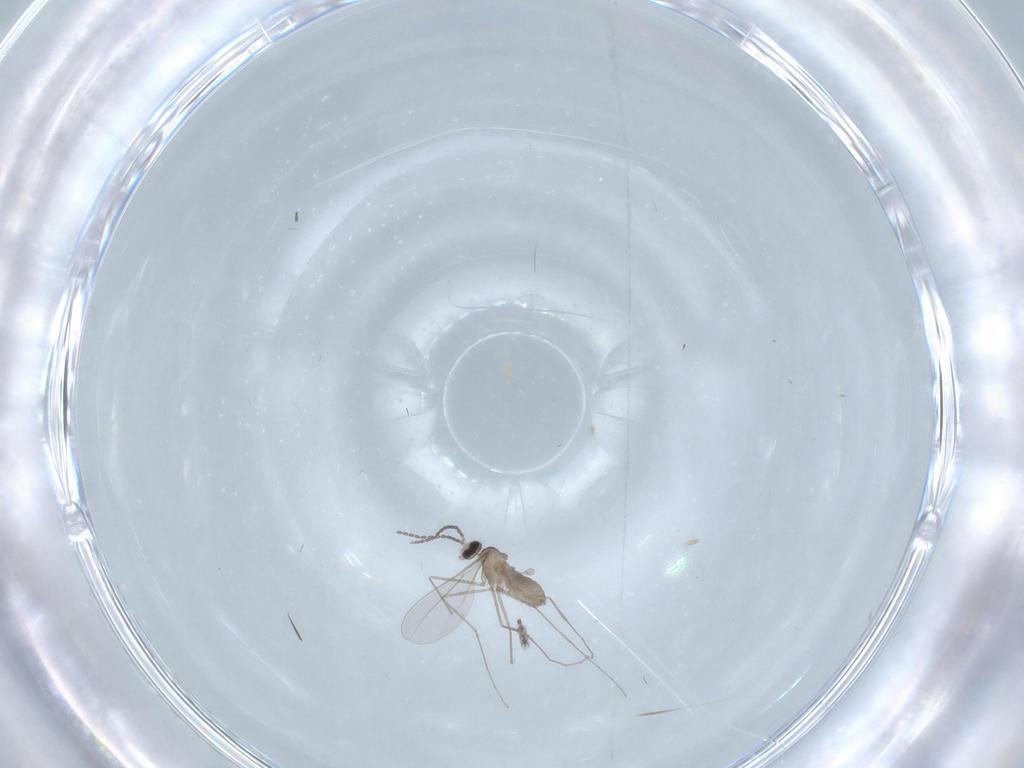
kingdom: Animalia
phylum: Arthropoda
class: Insecta
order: Diptera
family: Cecidomyiidae
